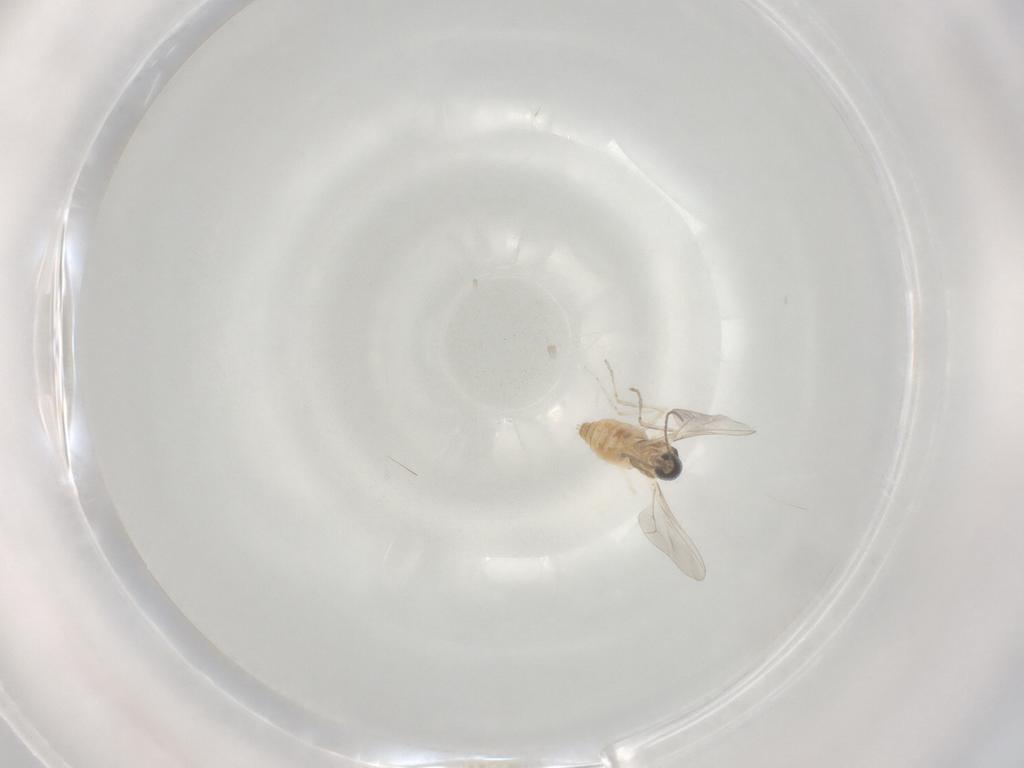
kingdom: Animalia
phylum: Arthropoda
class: Insecta
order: Diptera
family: Cecidomyiidae
